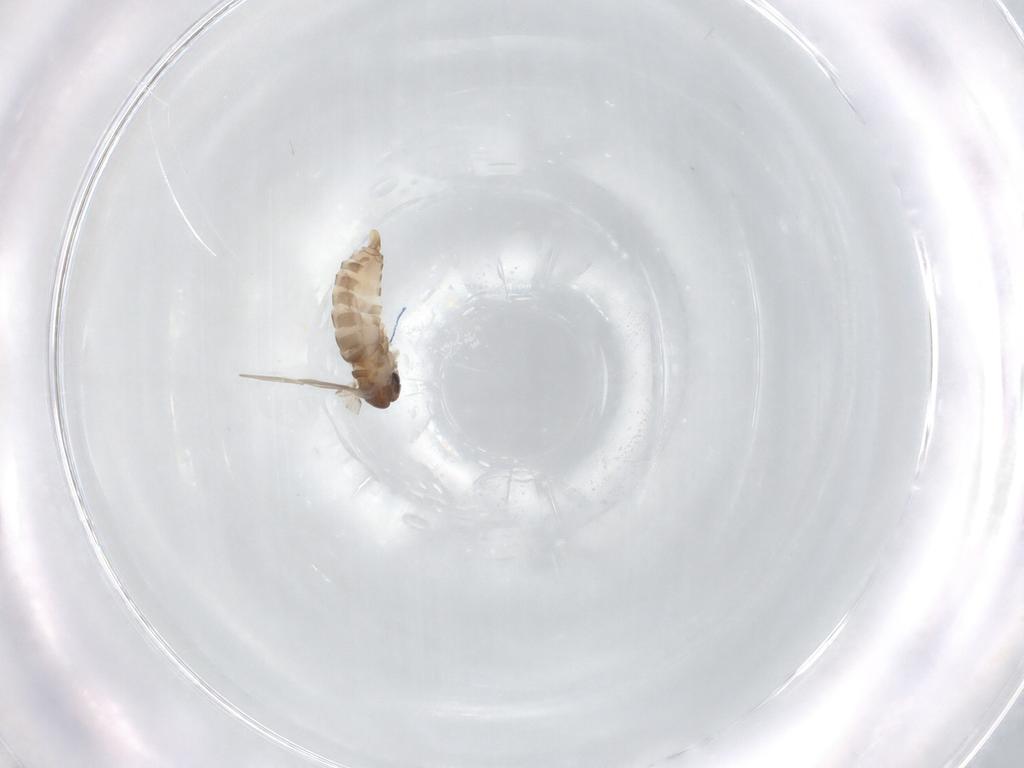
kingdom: Animalia
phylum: Arthropoda
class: Insecta
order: Diptera
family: Psychodidae
